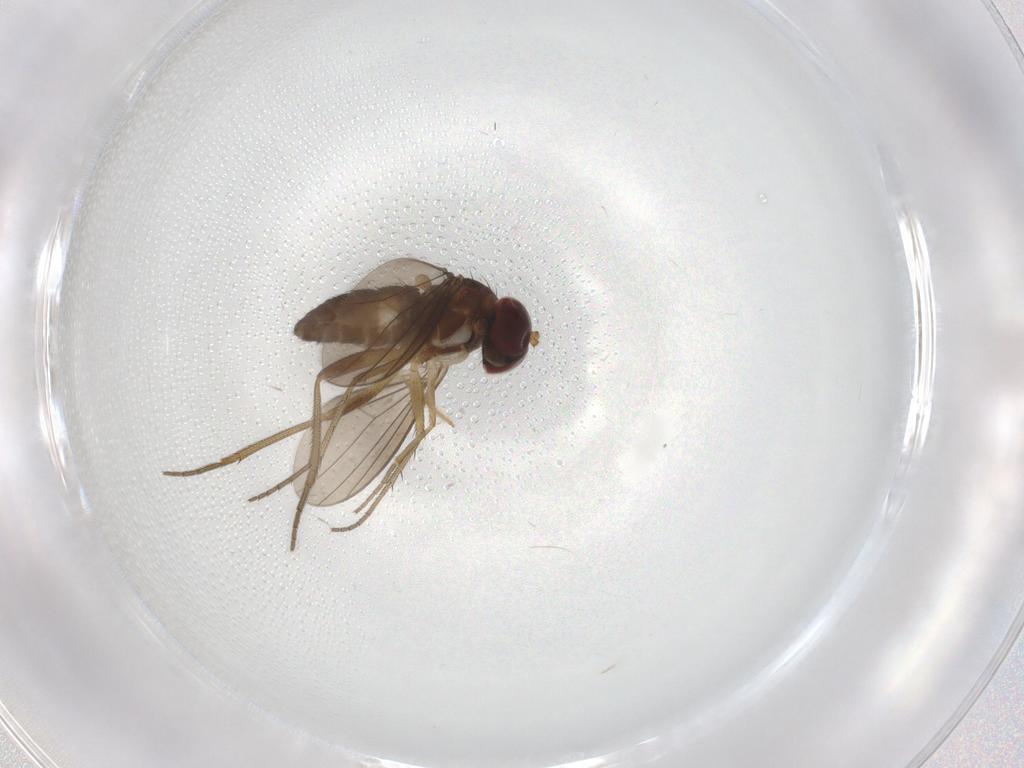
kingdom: Animalia
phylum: Arthropoda
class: Insecta
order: Diptera
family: Dolichopodidae
